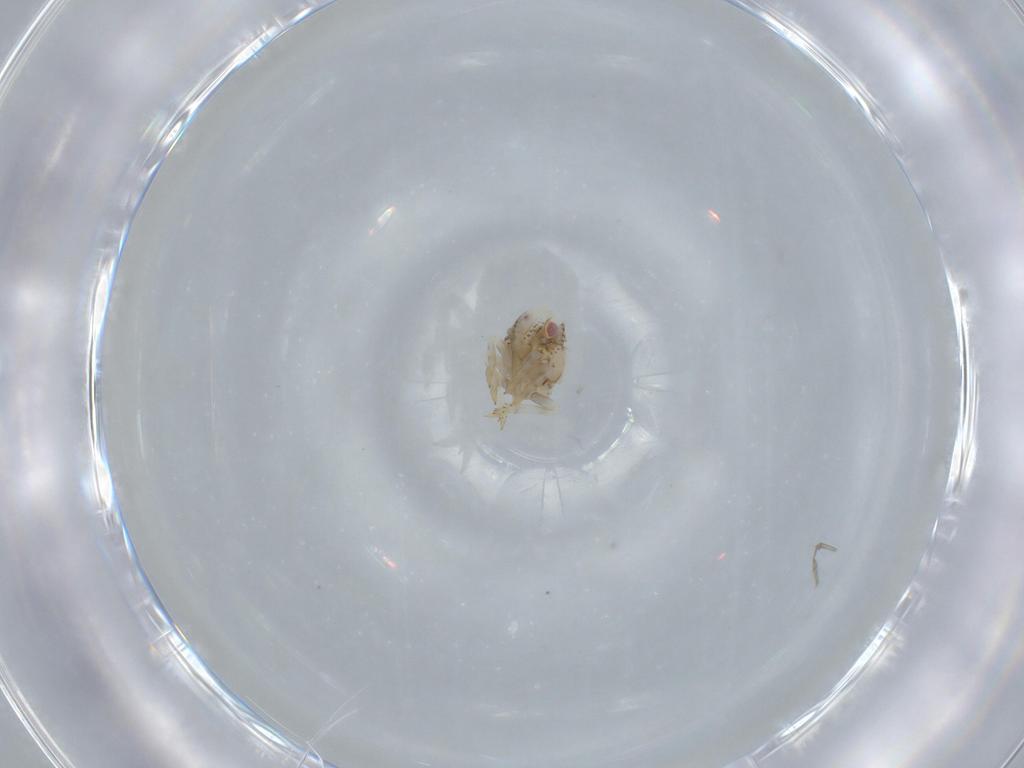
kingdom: Animalia
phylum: Arthropoda
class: Insecta
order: Hemiptera
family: Acanaloniidae
